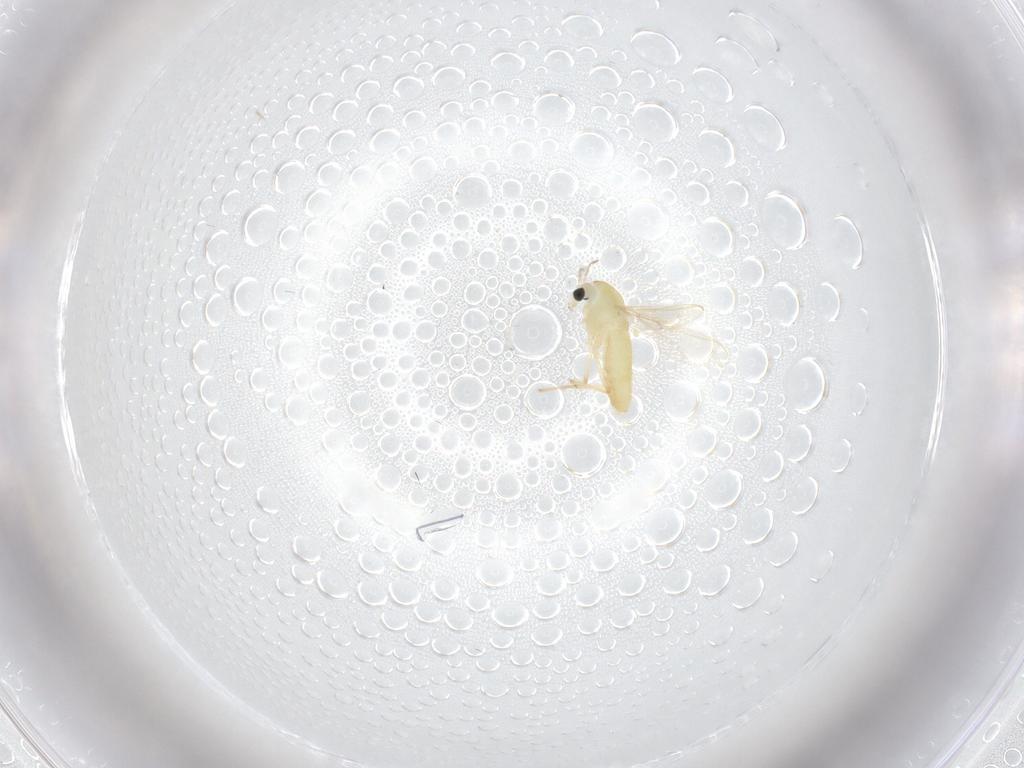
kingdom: Animalia
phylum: Arthropoda
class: Insecta
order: Diptera
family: Chironomidae
